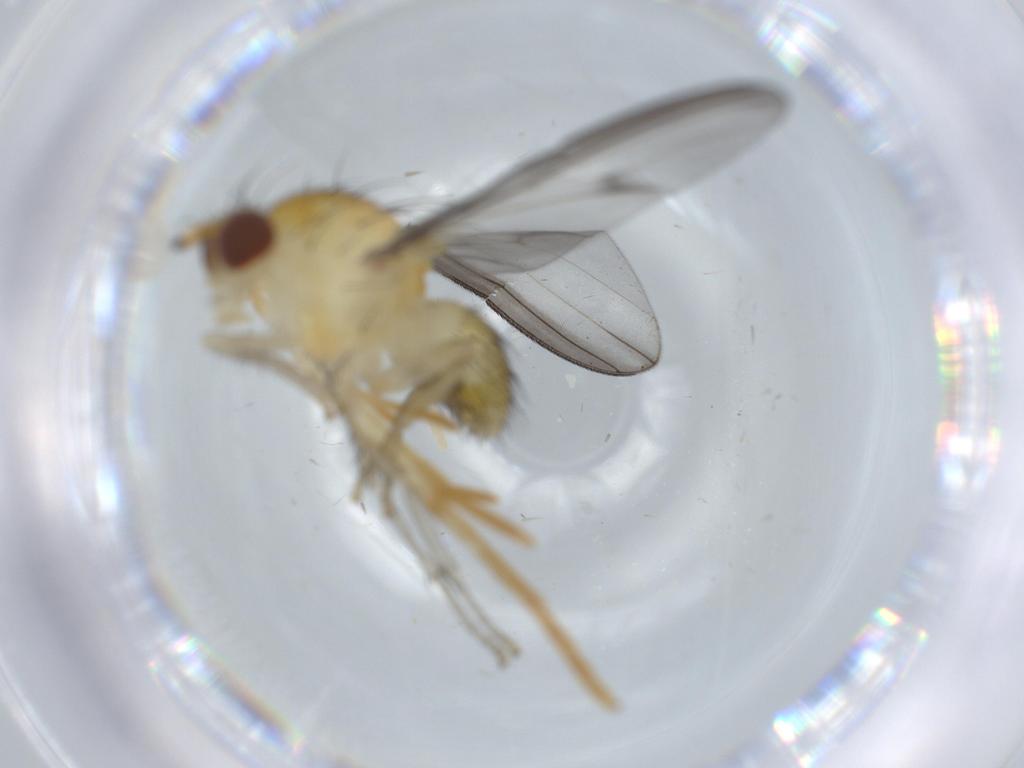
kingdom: Animalia
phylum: Arthropoda
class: Insecta
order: Diptera
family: Lauxaniidae
